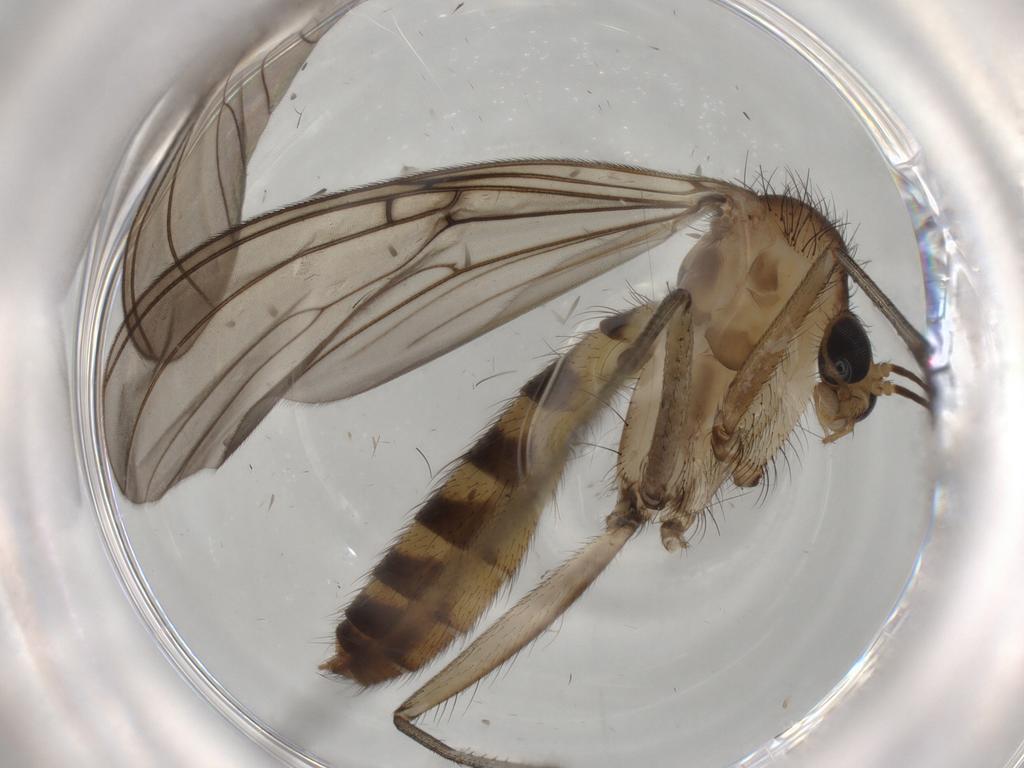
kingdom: Animalia
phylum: Arthropoda
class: Insecta
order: Diptera
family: Mycetophilidae
